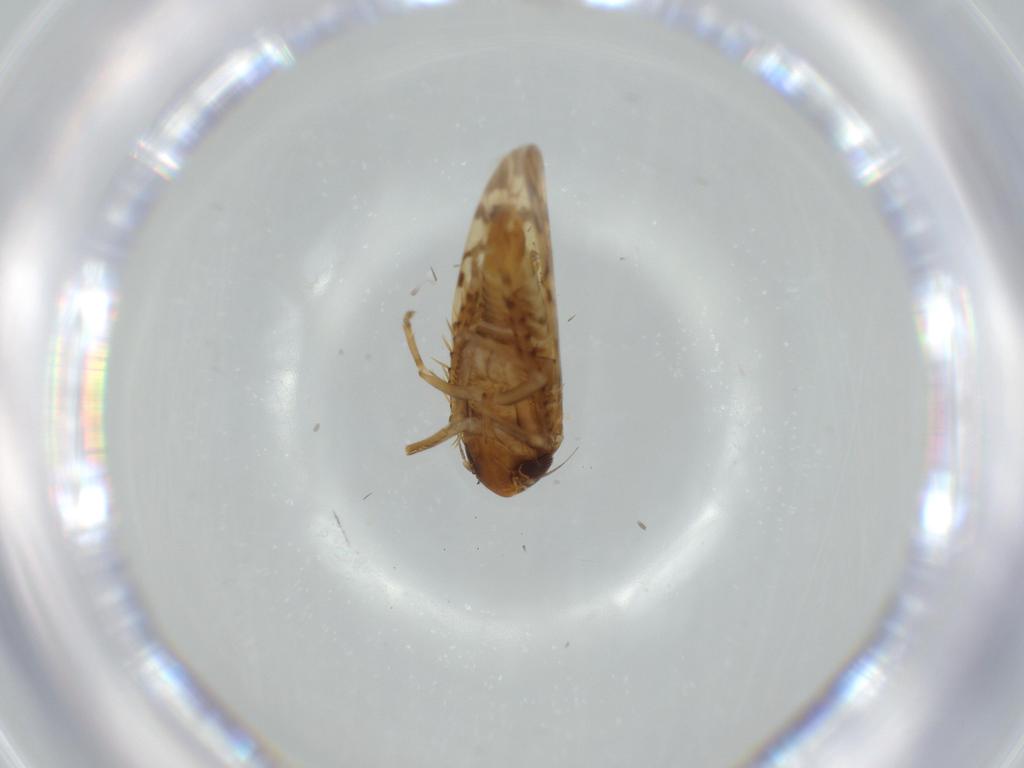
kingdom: Animalia
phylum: Arthropoda
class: Insecta
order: Hemiptera
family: Cicadellidae
